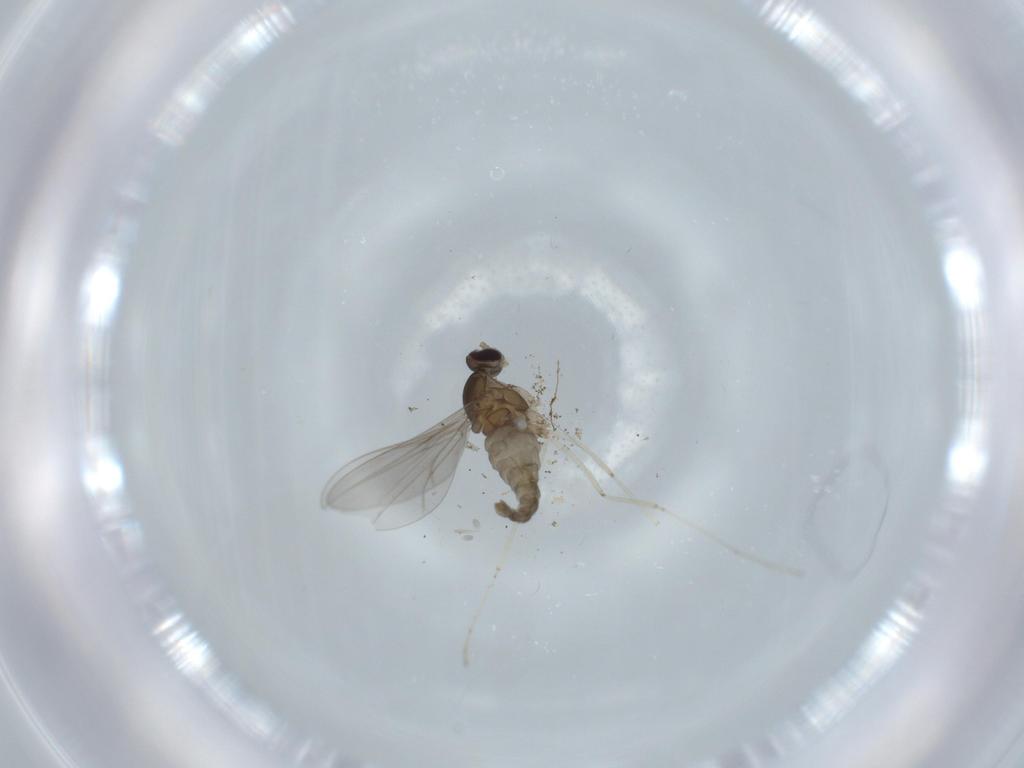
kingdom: Animalia
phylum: Arthropoda
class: Insecta
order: Diptera
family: Cecidomyiidae
